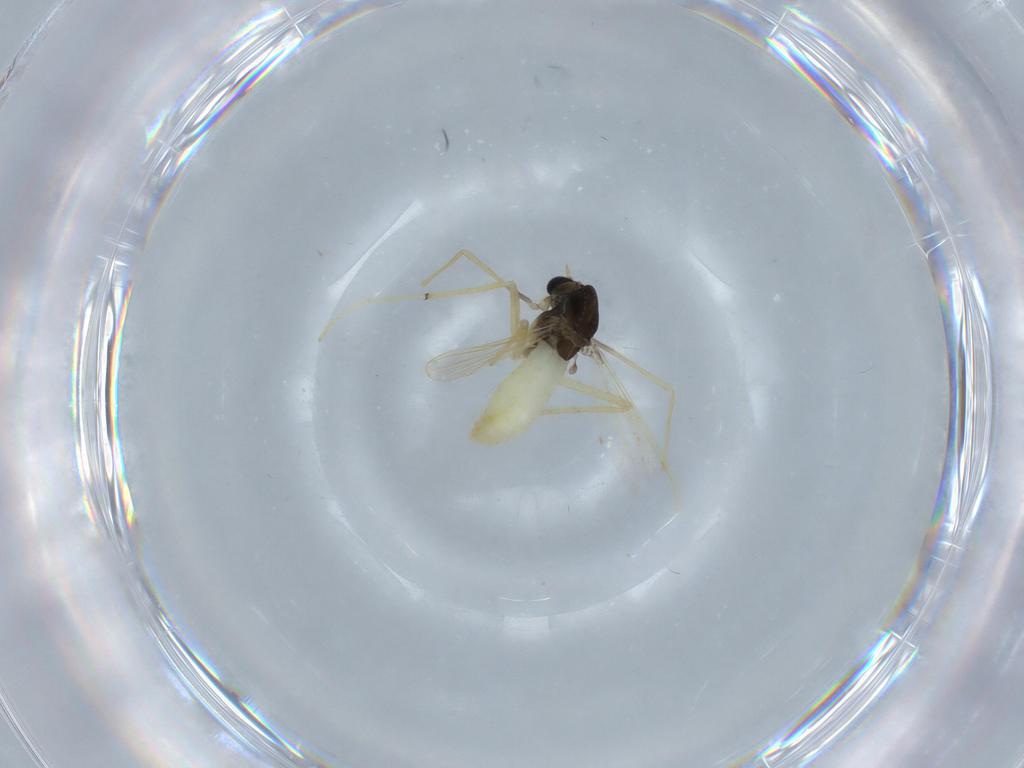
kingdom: Animalia
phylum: Arthropoda
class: Insecta
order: Diptera
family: Chironomidae
